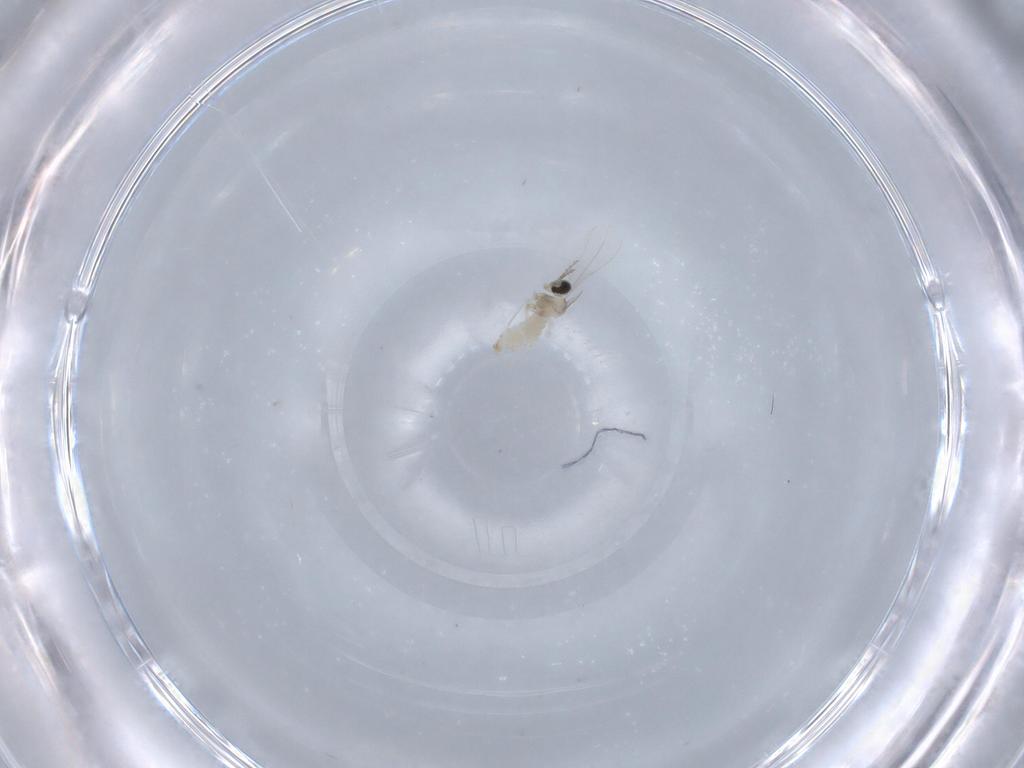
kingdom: Animalia
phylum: Arthropoda
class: Insecta
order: Diptera
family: Cecidomyiidae
